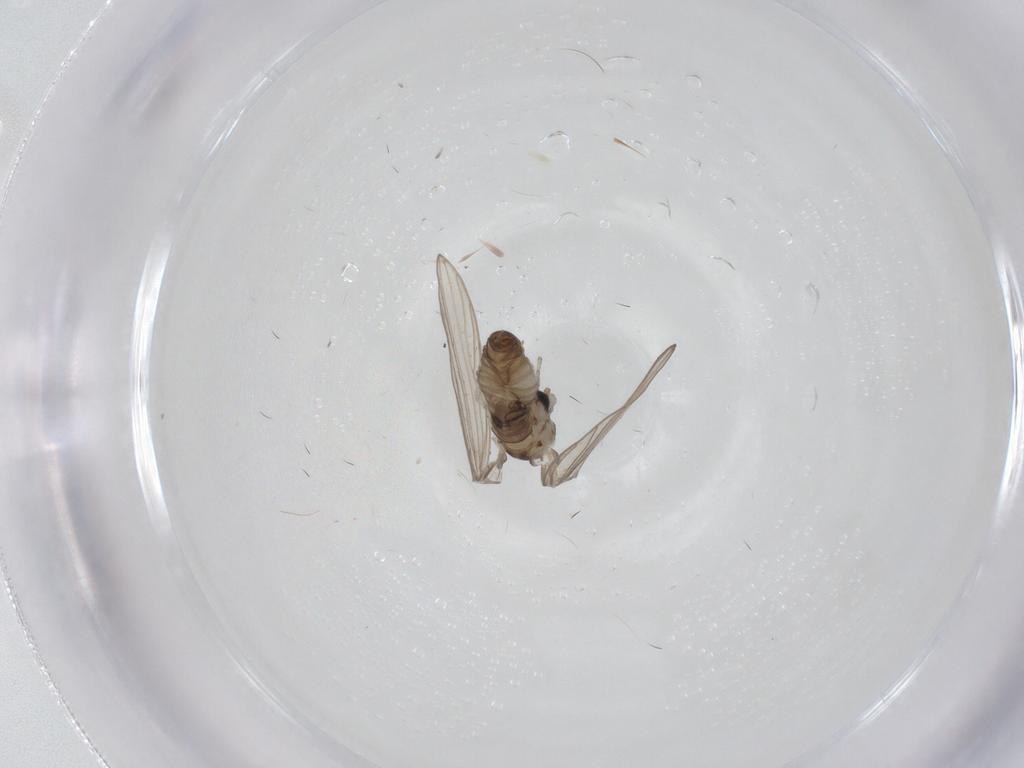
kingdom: Animalia
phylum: Arthropoda
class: Insecta
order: Diptera
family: Psychodidae
